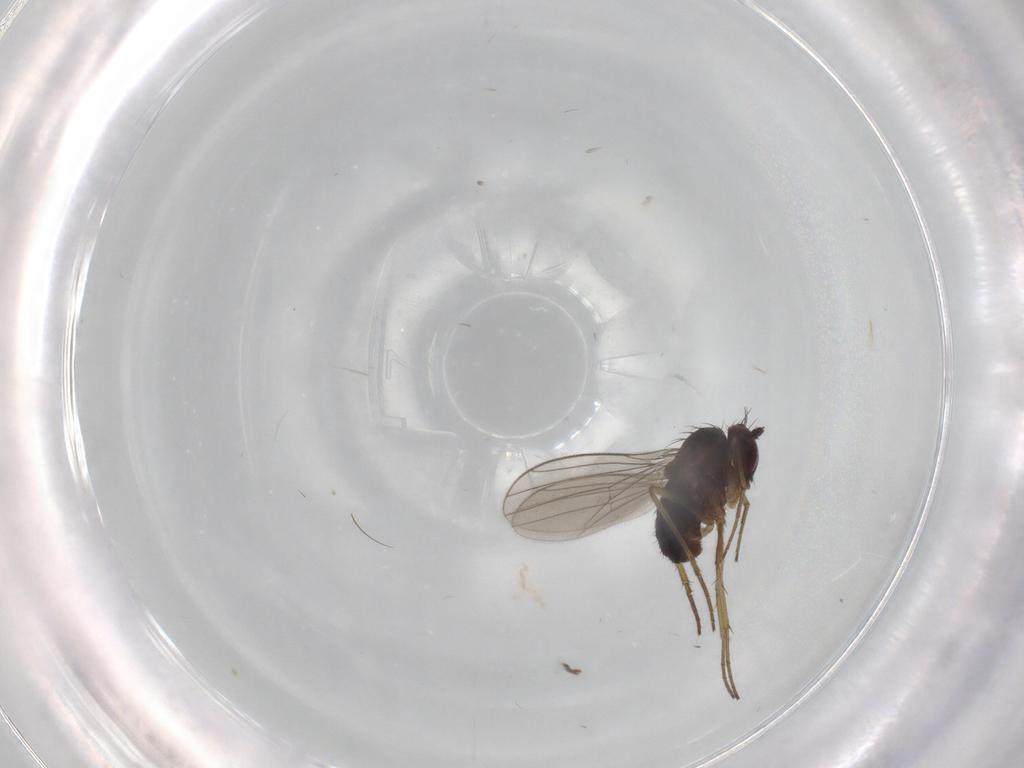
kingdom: Animalia
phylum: Arthropoda
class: Insecta
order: Diptera
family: Dolichopodidae
